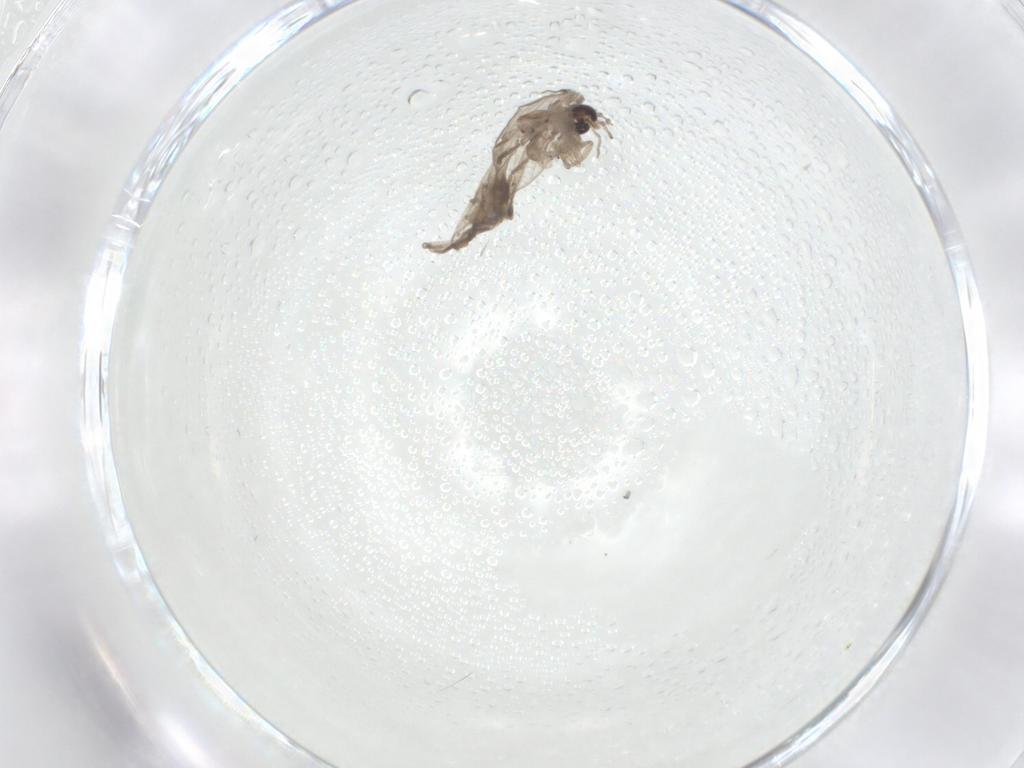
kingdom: Animalia
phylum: Arthropoda
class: Insecta
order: Diptera
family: Psychodidae
